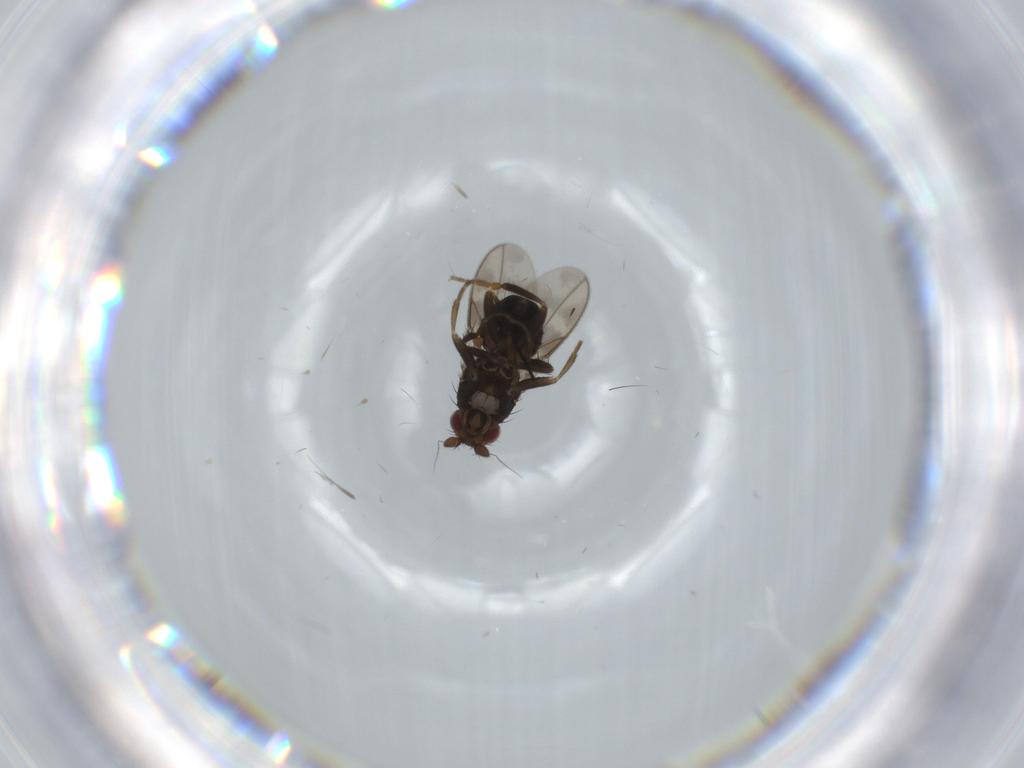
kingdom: Animalia
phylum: Arthropoda
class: Insecta
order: Diptera
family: Sphaeroceridae
